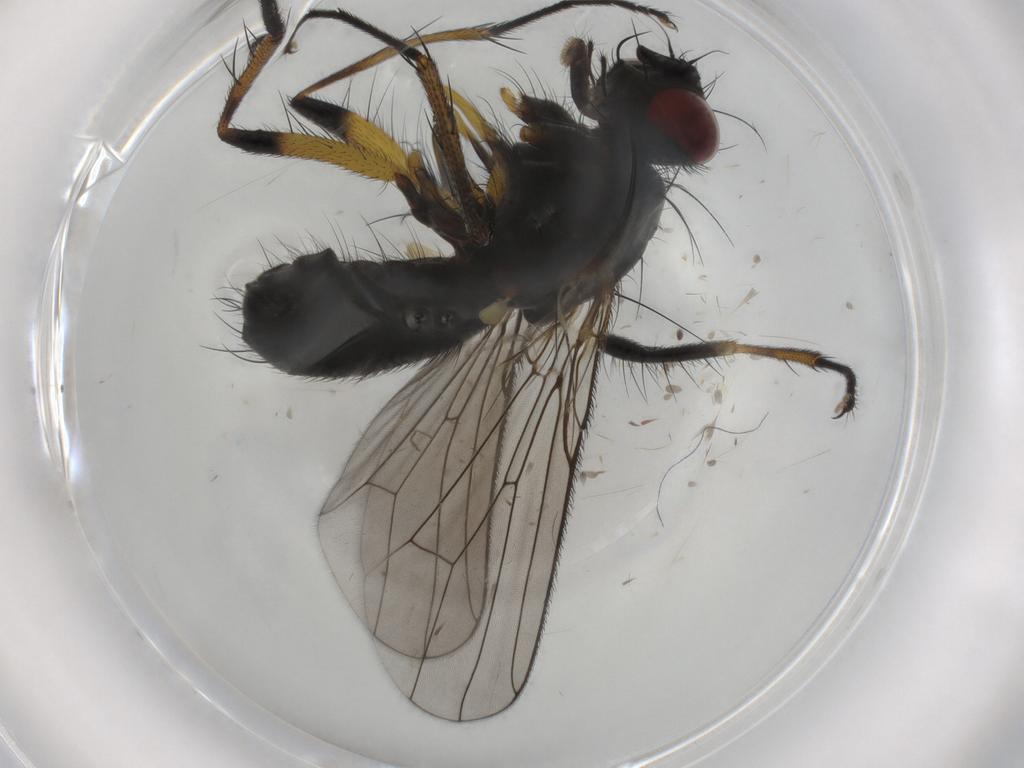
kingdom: Animalia
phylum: Arthropoda
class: Insecta
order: Diptera
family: Muscidae
